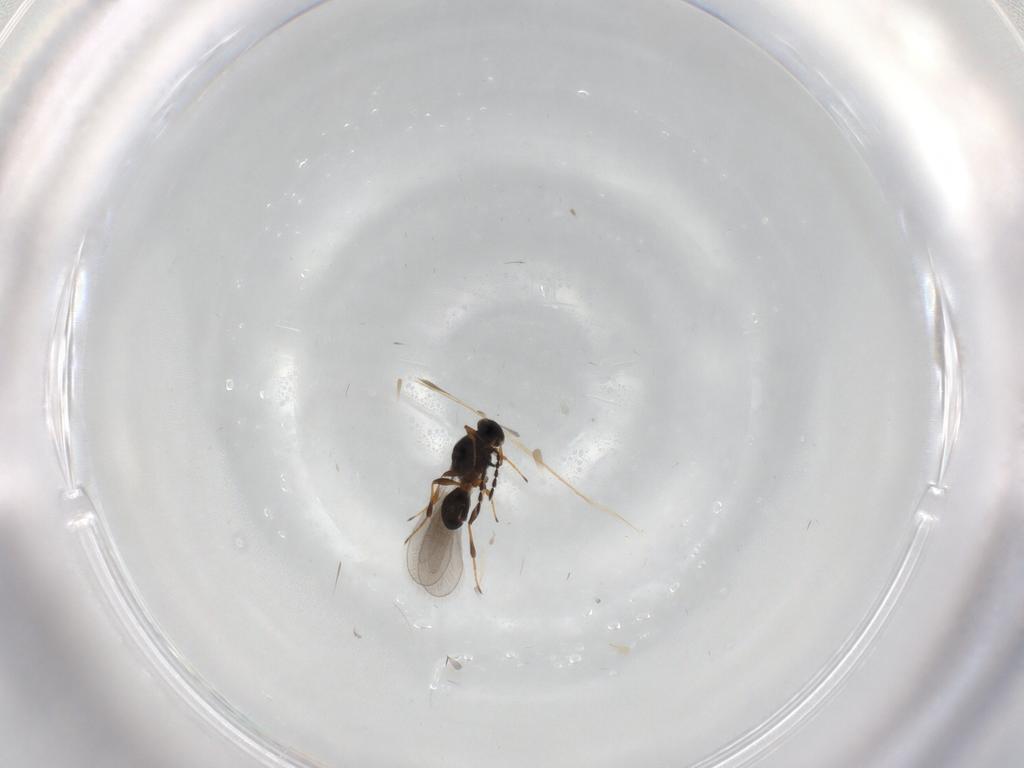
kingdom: Animalia
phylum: Arthropoda
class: Insecta
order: Hymenoptera
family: Platygastridae
